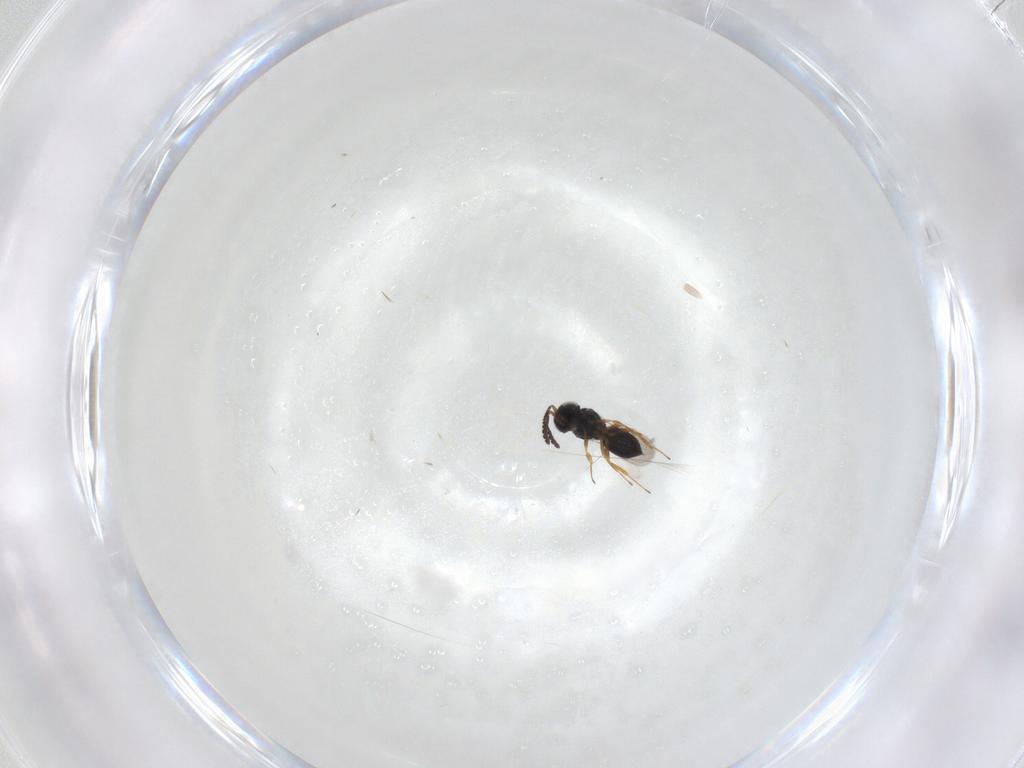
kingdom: Animalia
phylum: Arthropoda
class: Insecta
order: Hymenoptera
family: Scelionidae
